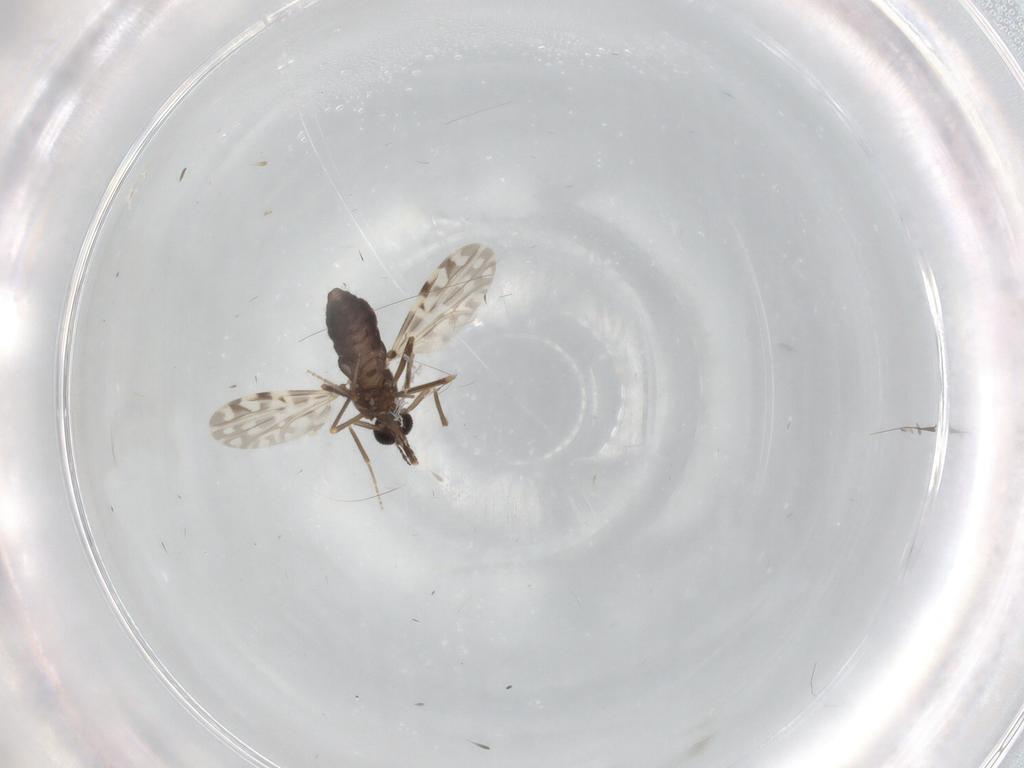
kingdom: Animalia
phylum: Arthropoda
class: Insecta
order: Diptera
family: Ceratopogonidae
